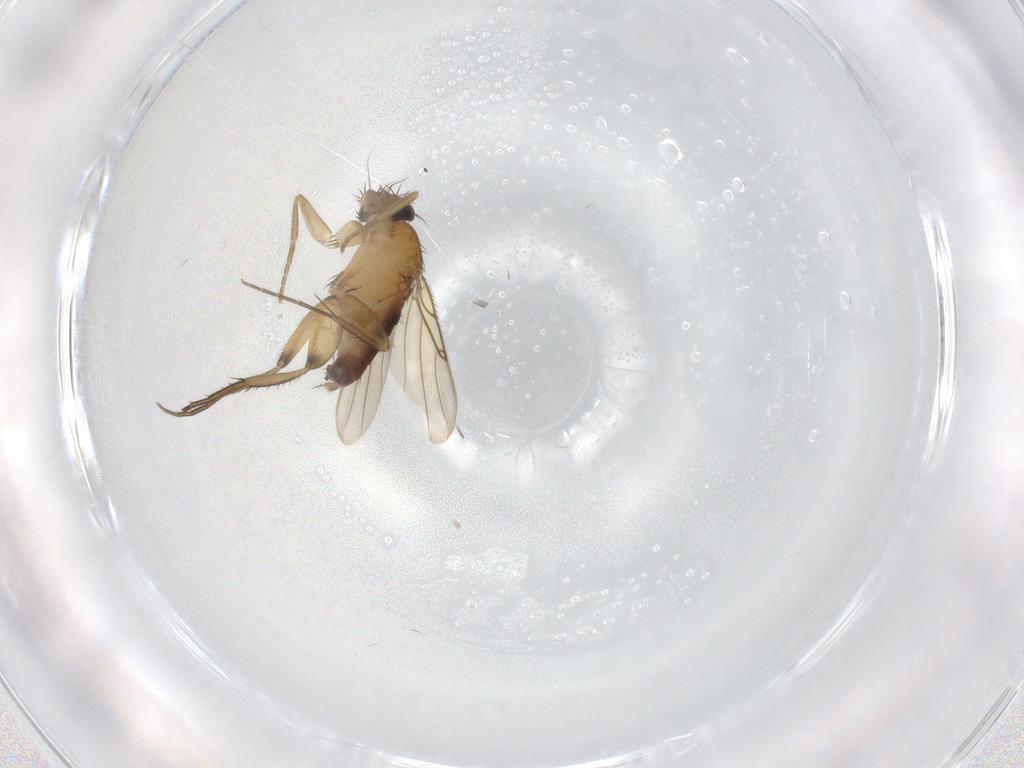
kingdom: Animalia
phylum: Arthropoda
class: Insecta
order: Diptera
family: Phoridae
